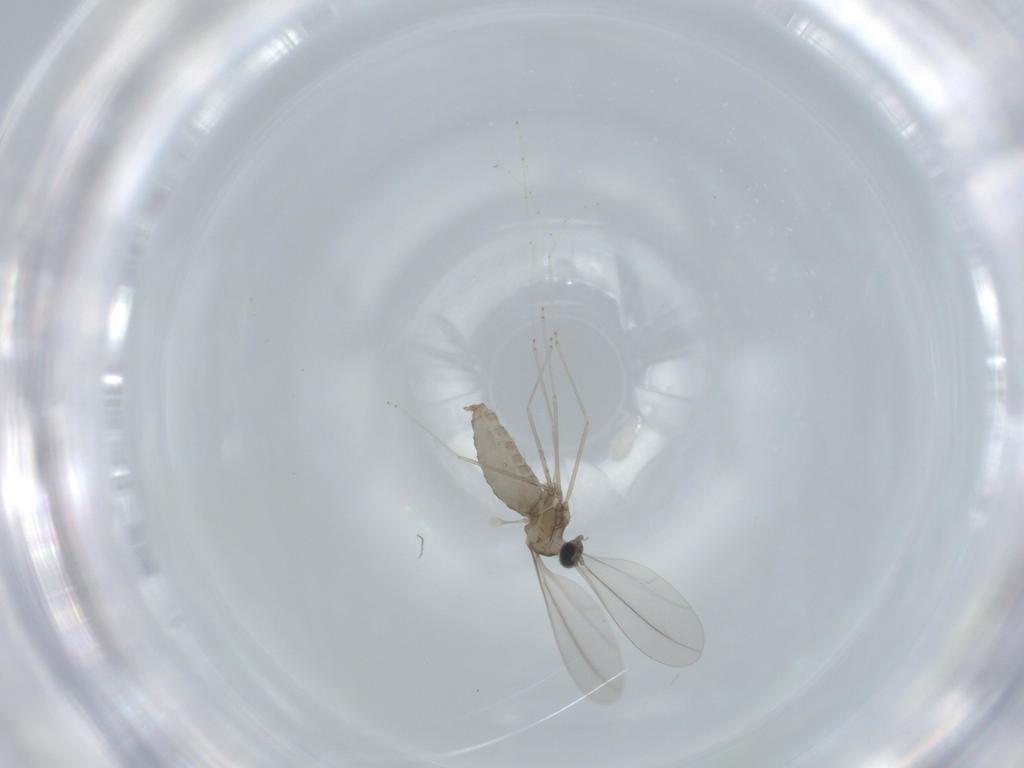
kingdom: Animalia
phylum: Arthropoda
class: Insecta
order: Diptera
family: Cecidomyiidae
